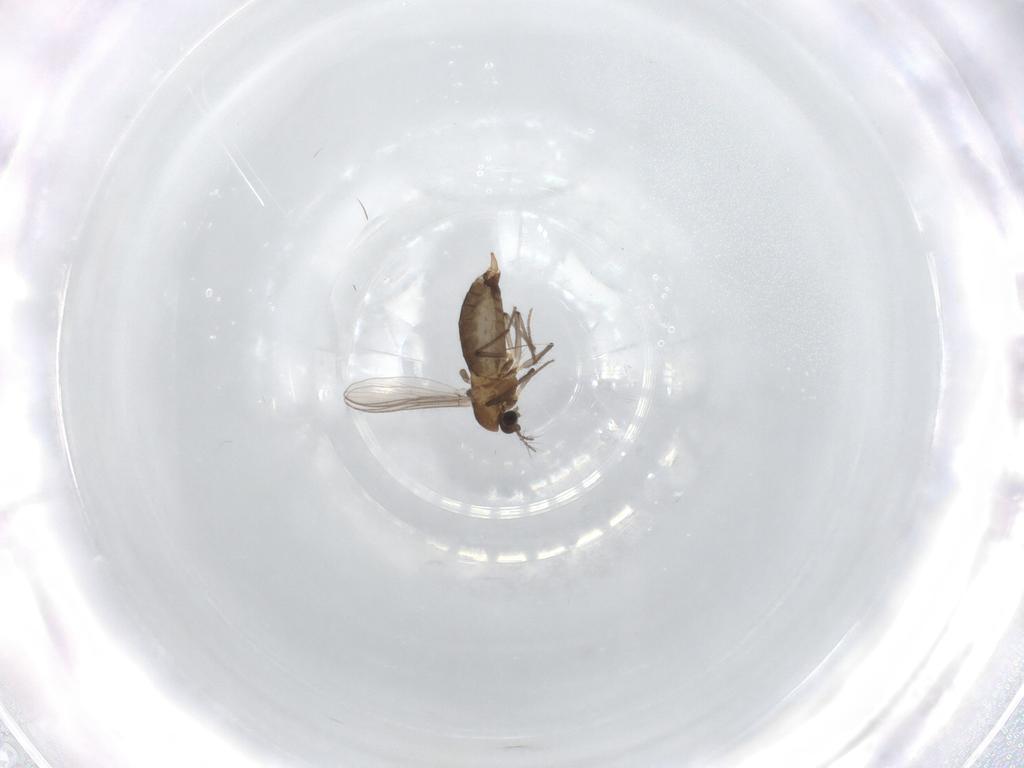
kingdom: Animalia
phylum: Arthropoda
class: Insecta
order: Diptera
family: Chironomidae
